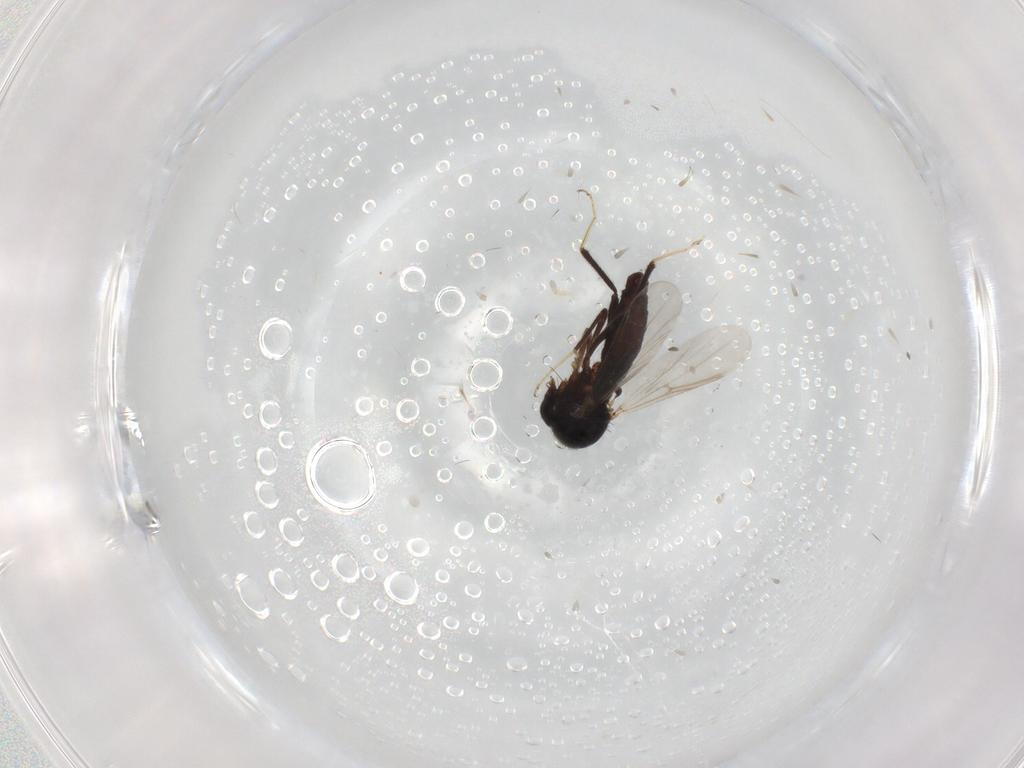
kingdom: Animalia
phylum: Arthropoda
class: Insecta
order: Diptera
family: Ceratopogonidae
